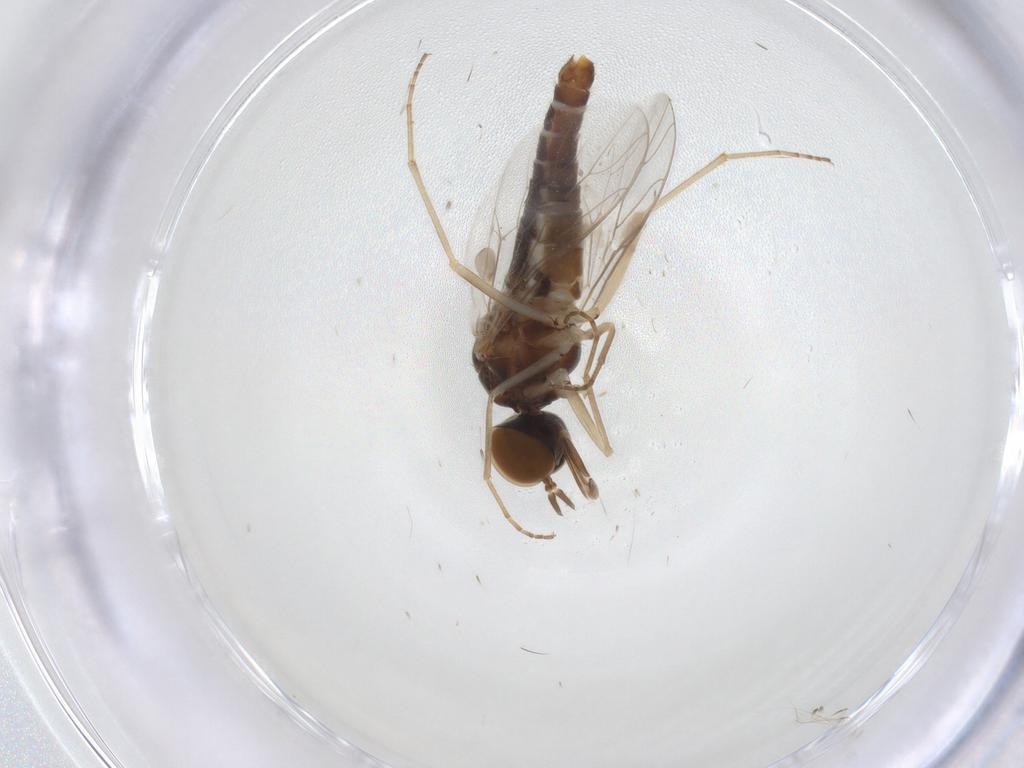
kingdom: Animalia
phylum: Arthropoda
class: Insecta
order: Diptera
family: Scenopinidae
